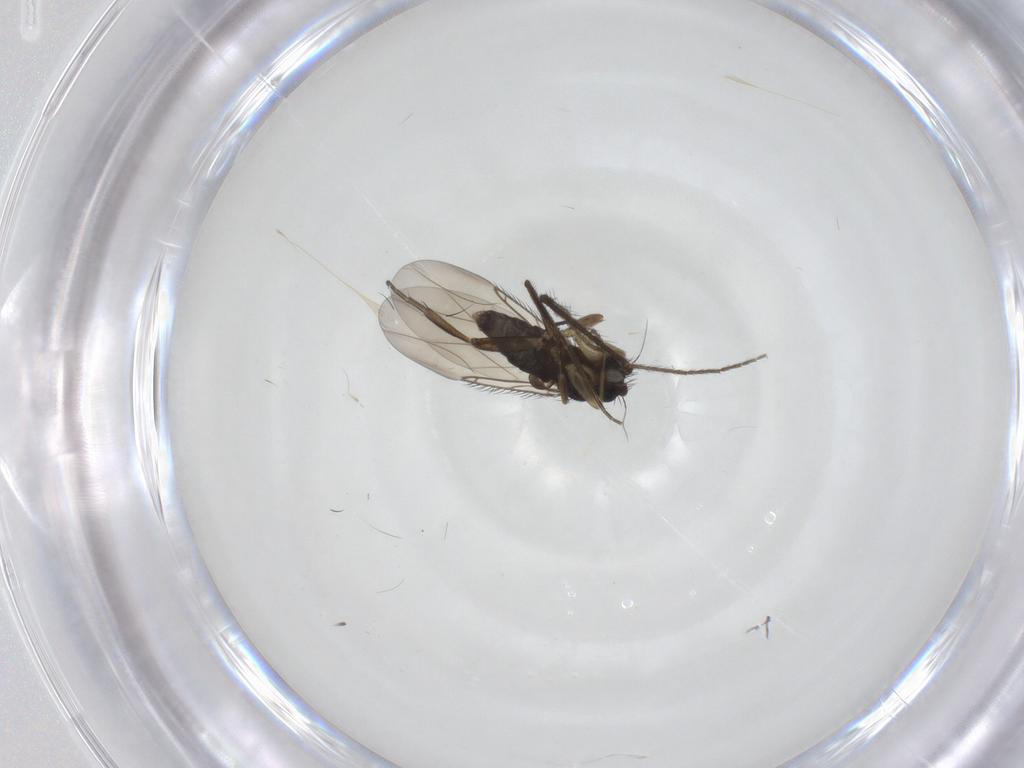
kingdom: Animalia
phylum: Arthropoda
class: Insecta
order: Diptera
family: Phoridae
